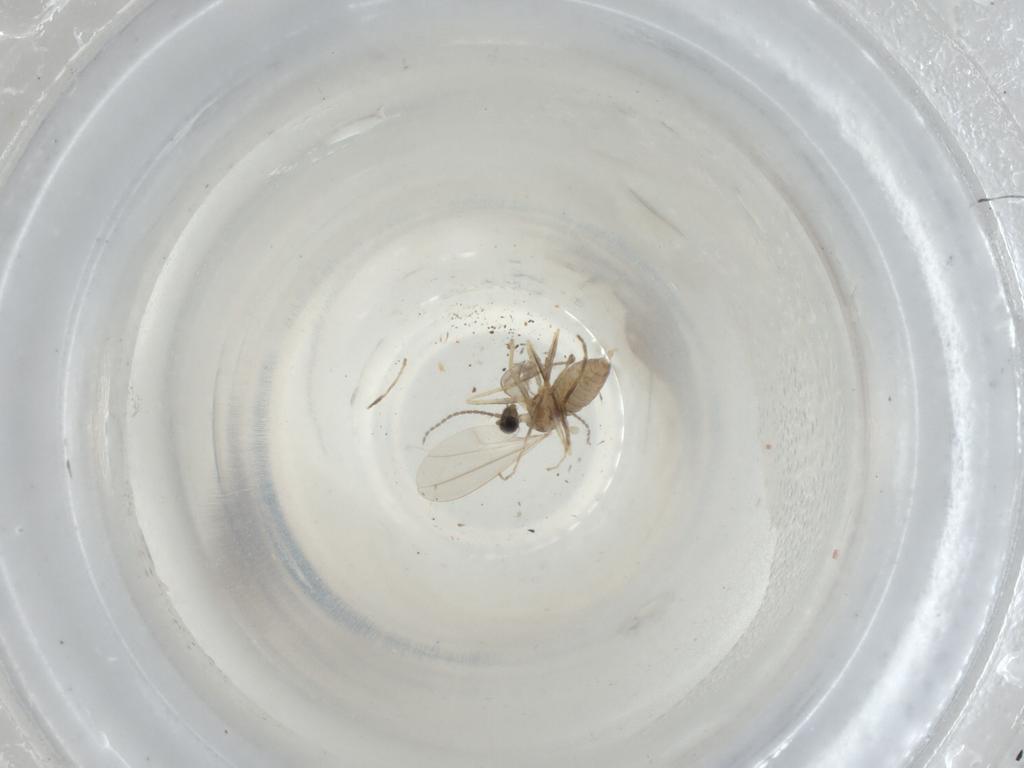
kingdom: Animalia
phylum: Arthropoda
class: Insecta
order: Diptera
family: Cecidomyiidae
